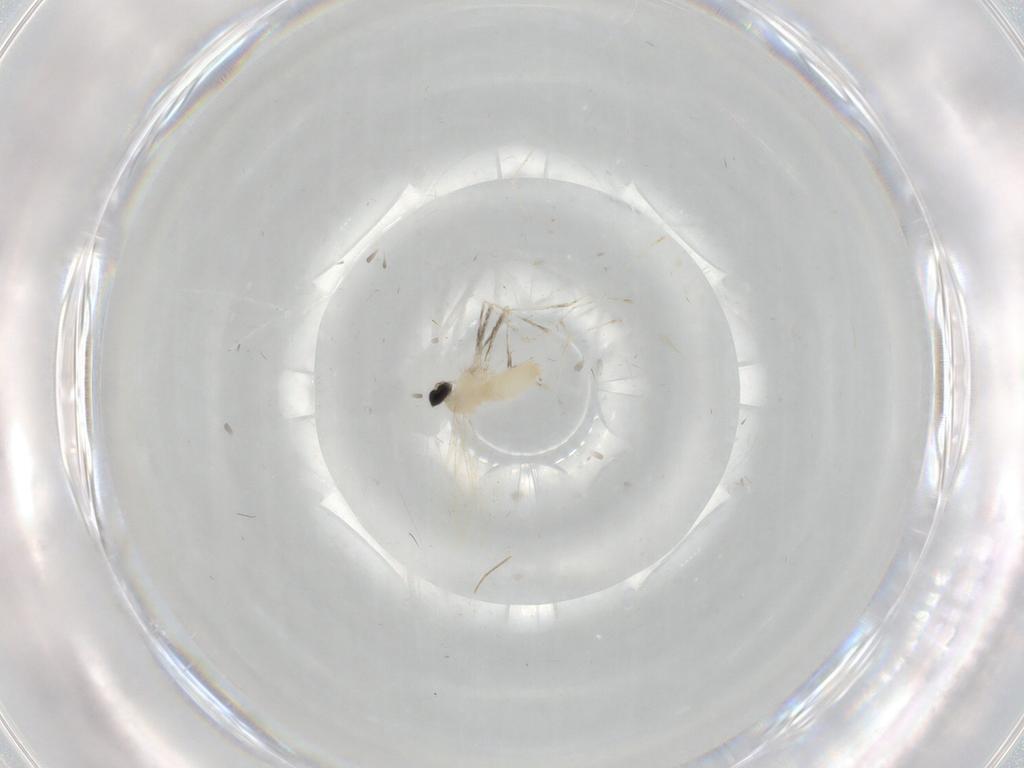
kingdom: Animalia
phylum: Arthropoda
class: Insecta
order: Diptera
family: Chironomidae
